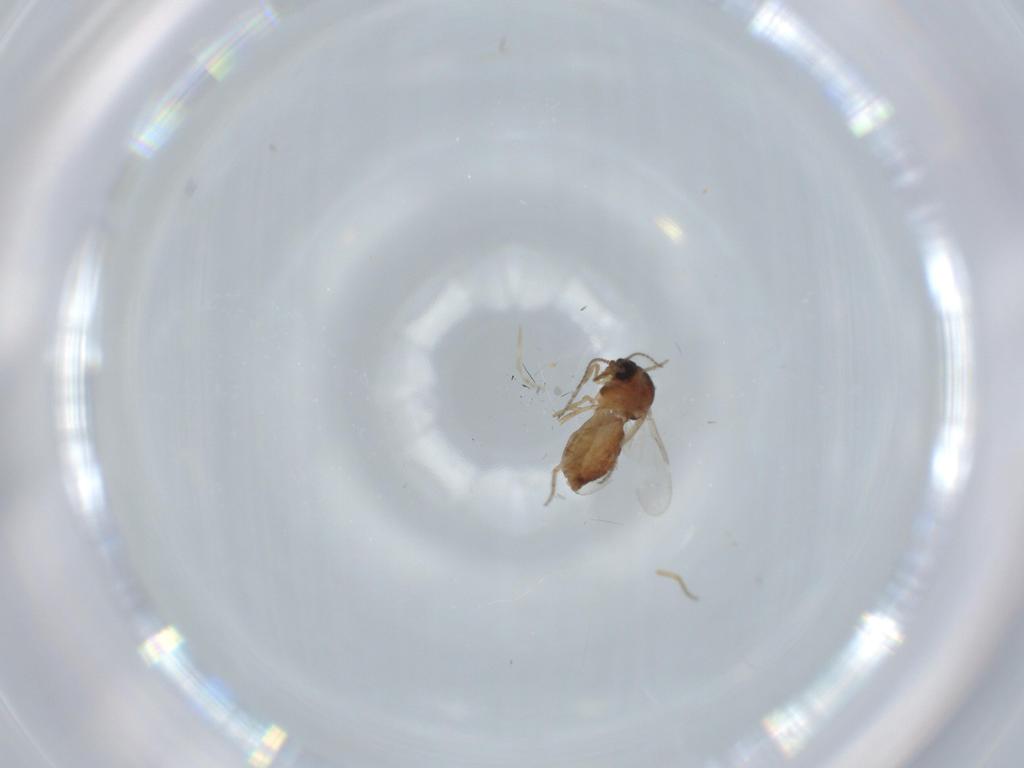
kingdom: Animalia
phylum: Arthropoda
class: Insecta
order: Diptera
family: Ceratopogonidae
